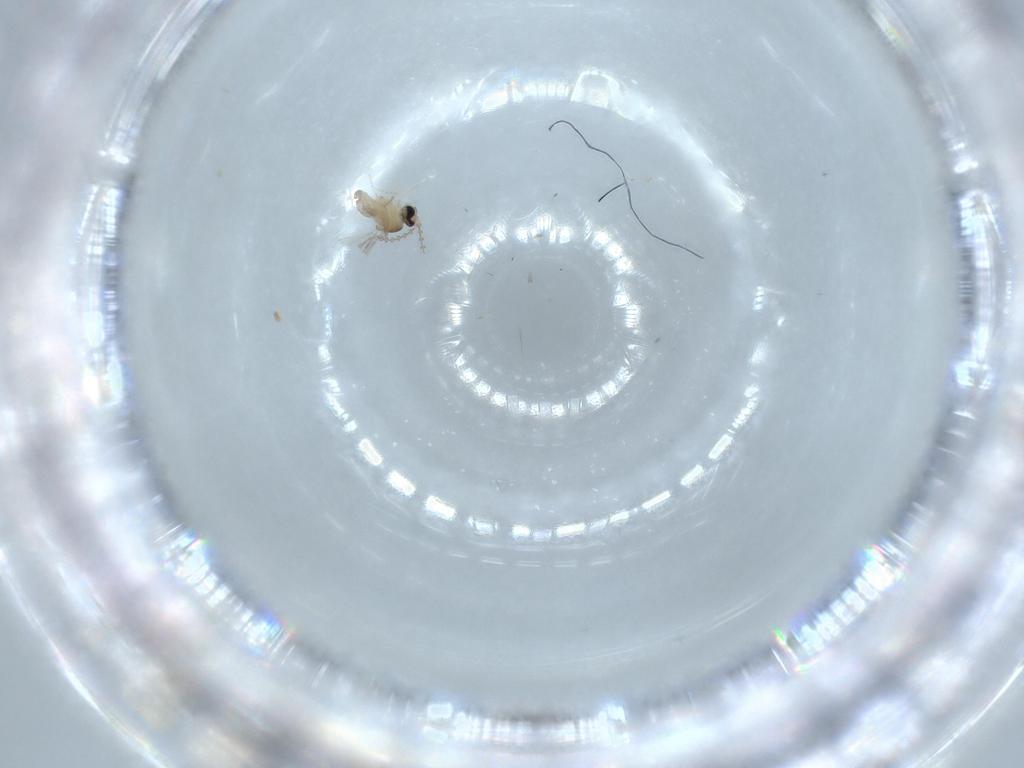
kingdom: Animalia
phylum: Arthropoda
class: Insecta
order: Diptera
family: Cecidomyiidae
